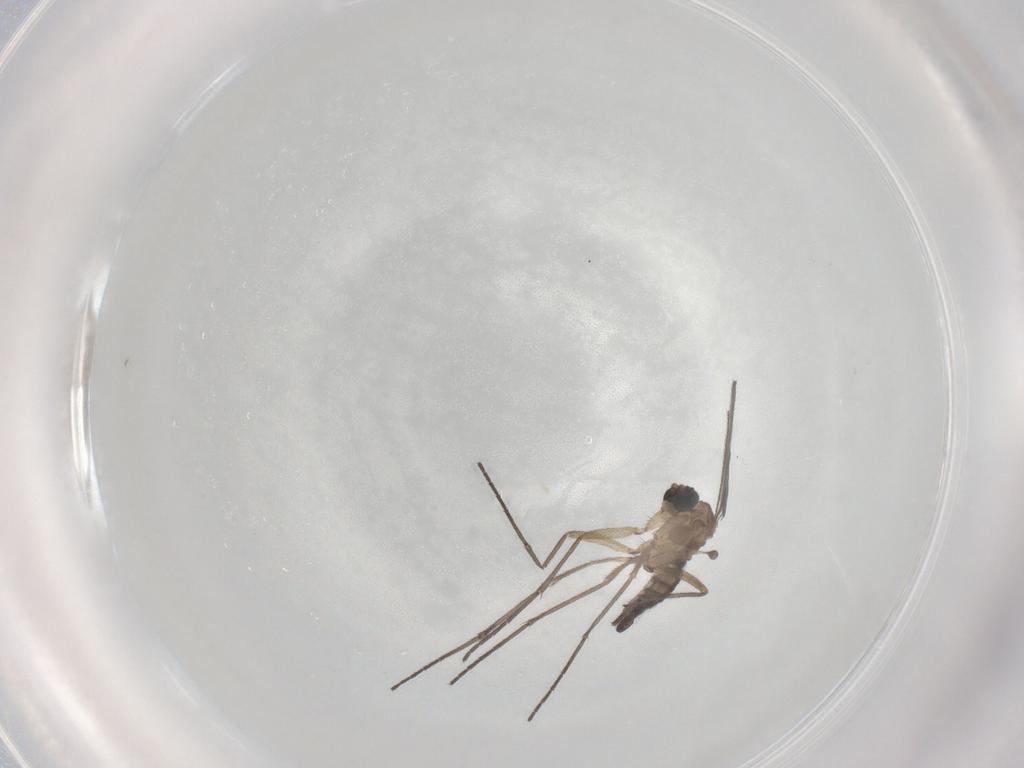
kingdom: Animalia
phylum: Arthropoda
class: Insecta
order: Diptera
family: Sciaridae
